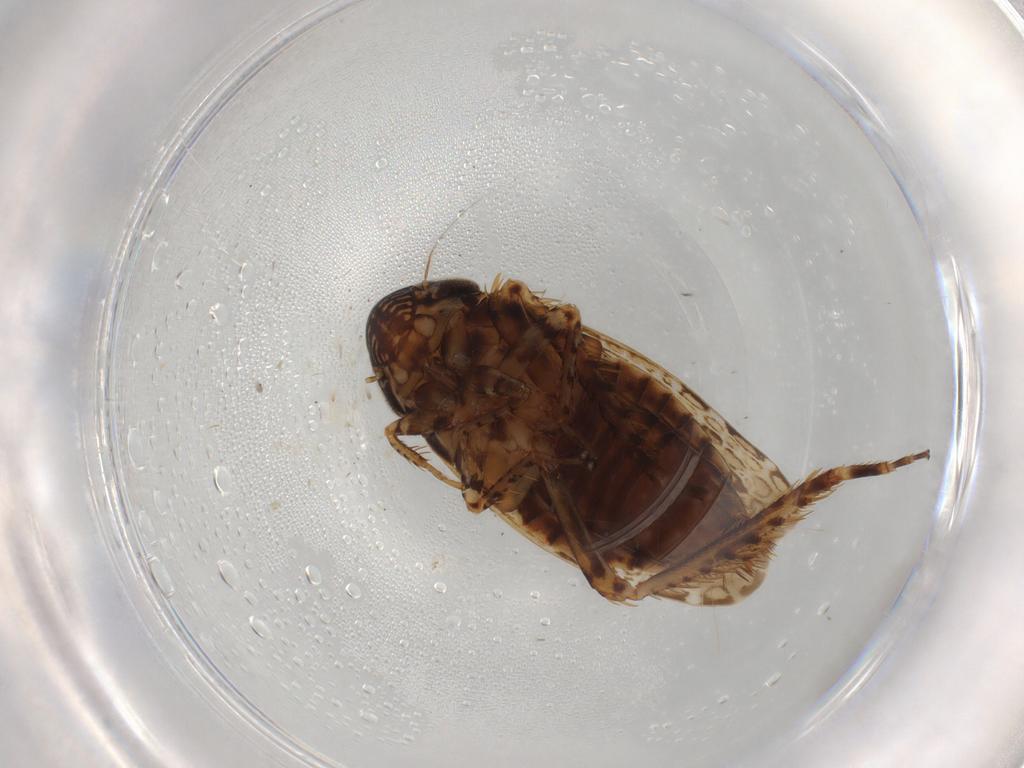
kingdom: Animalia
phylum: Arthropoda
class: Insecta
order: Hemiptera
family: Cicadellidae
